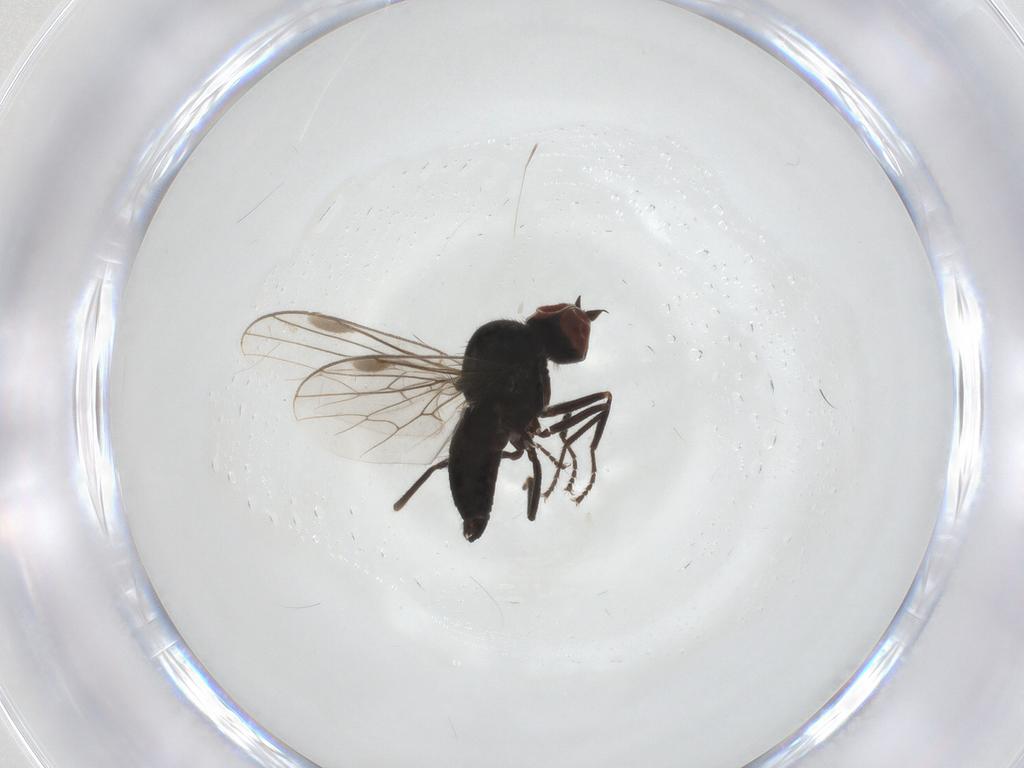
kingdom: Animalia
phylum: Arthropoda
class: Insecta
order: Diptera
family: Hybotidae
